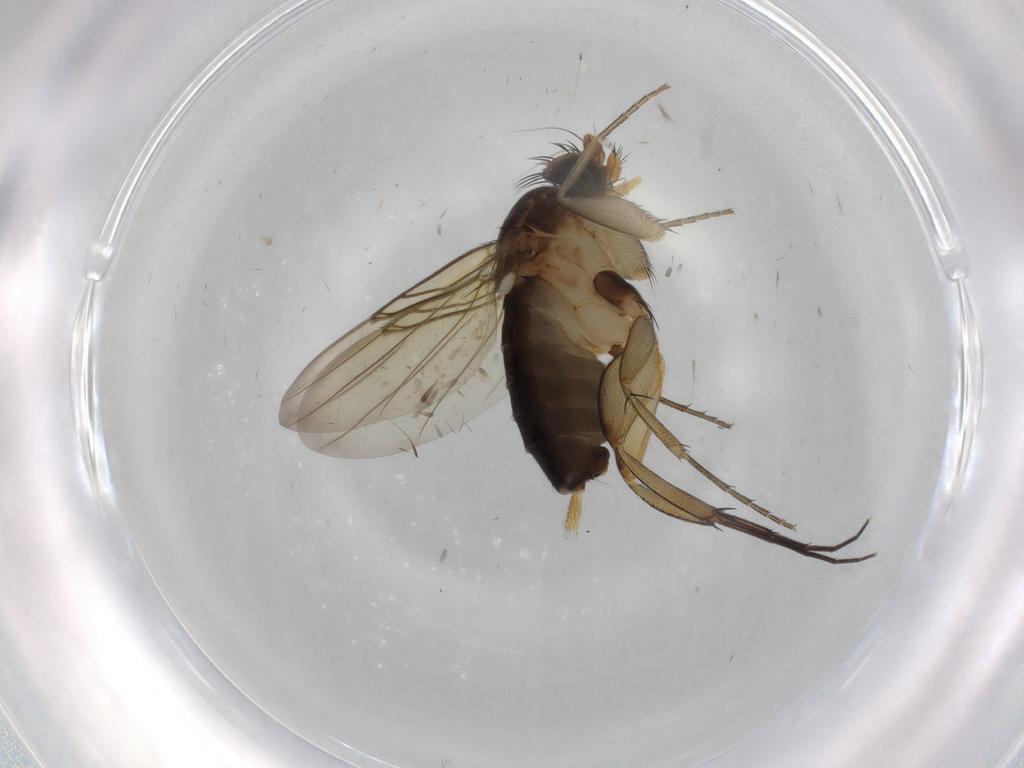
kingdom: Animalia
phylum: Arthropoda
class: Insecta
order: Diptera
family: Phoridae
